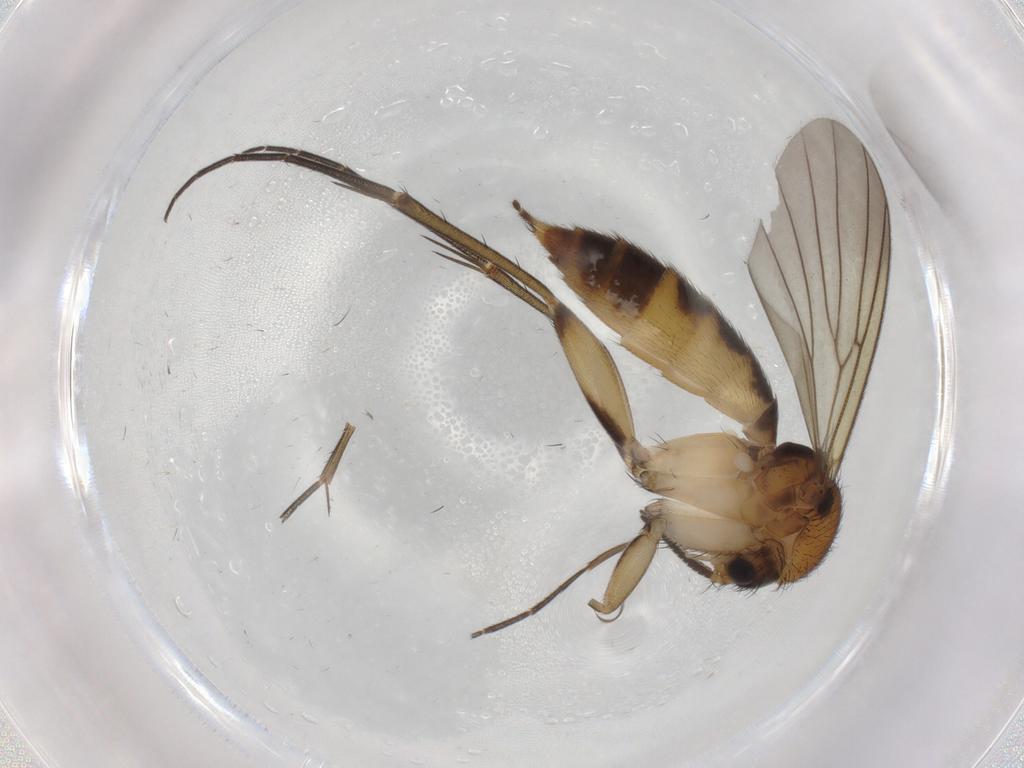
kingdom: Animalia
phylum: Arthropoda
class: Insecta
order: Diptera
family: Mycetophilidae
